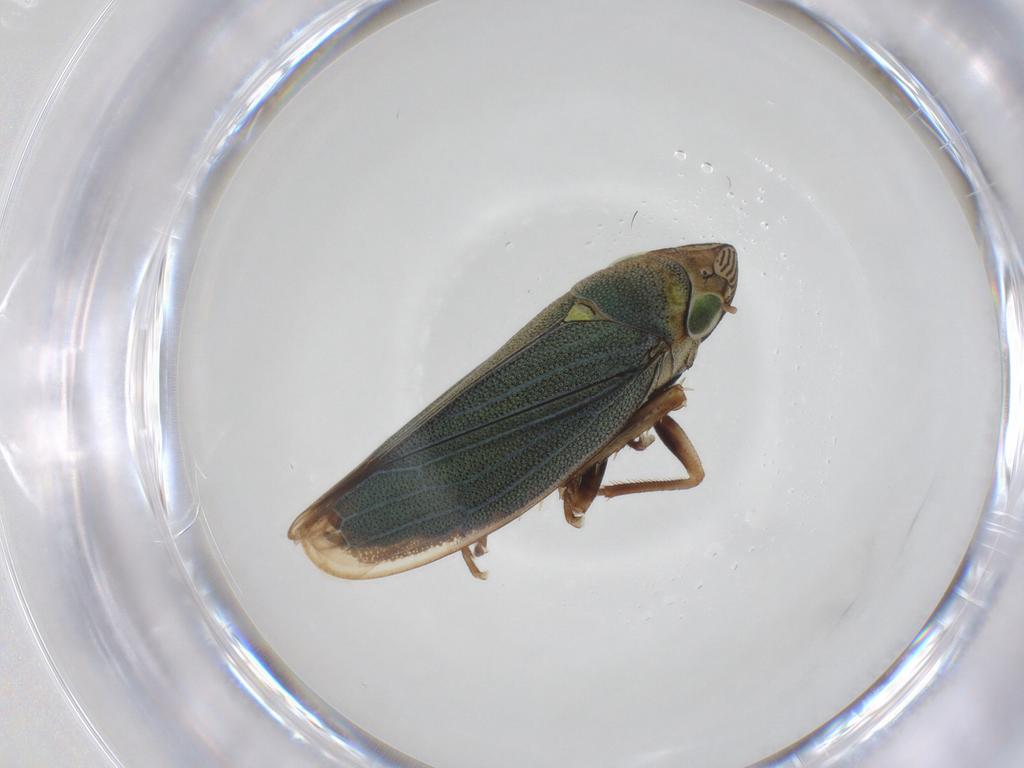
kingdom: Animalia
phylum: Arthropoda
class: Insecta
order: Hemiptera
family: Cicadellidae
